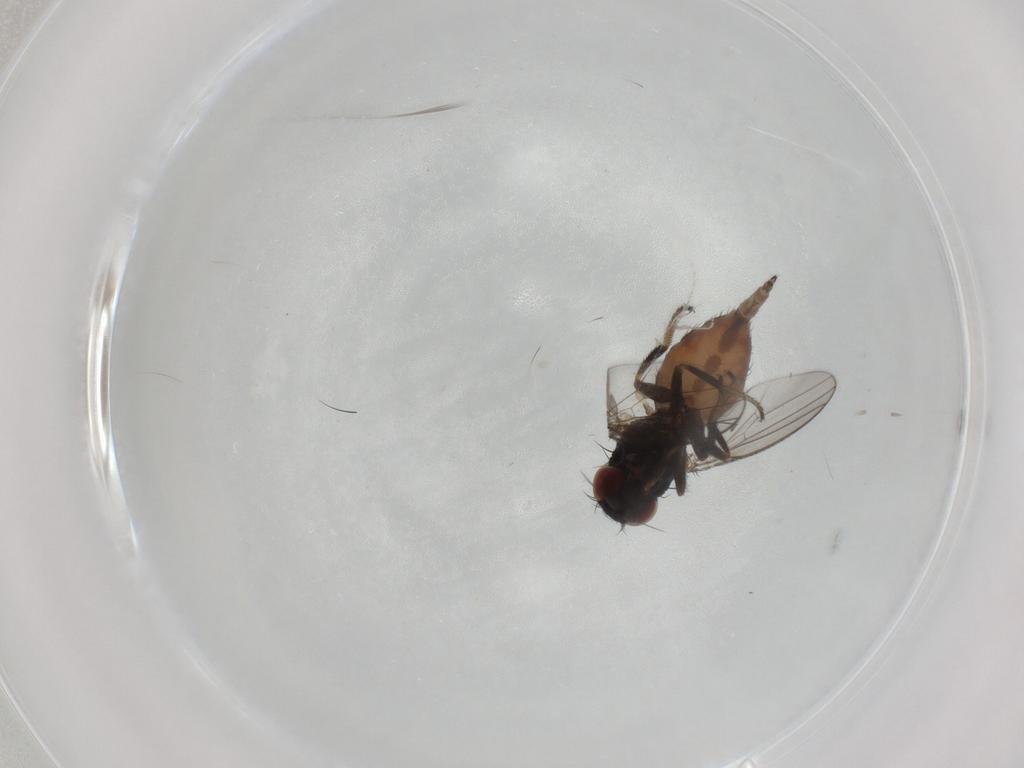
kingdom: Animalia
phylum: Arthropoda
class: Insecta
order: Diptera
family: Milichiidae
